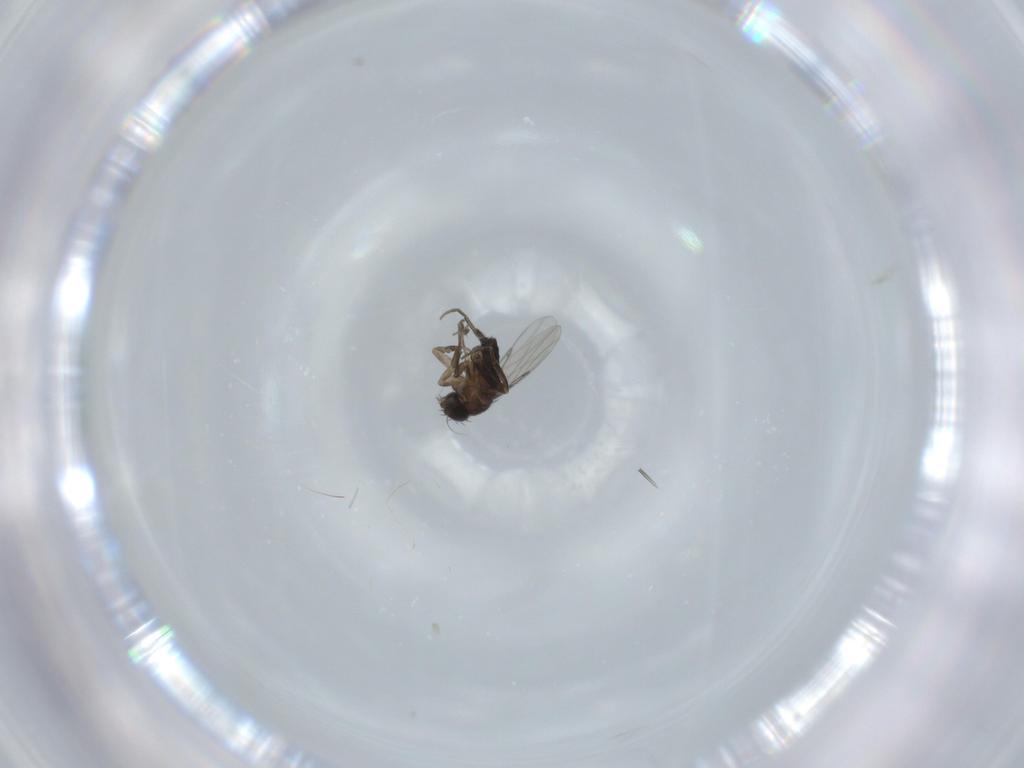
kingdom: Animalia
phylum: Arthropoda
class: Insecta
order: Diptera
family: Phoridae
